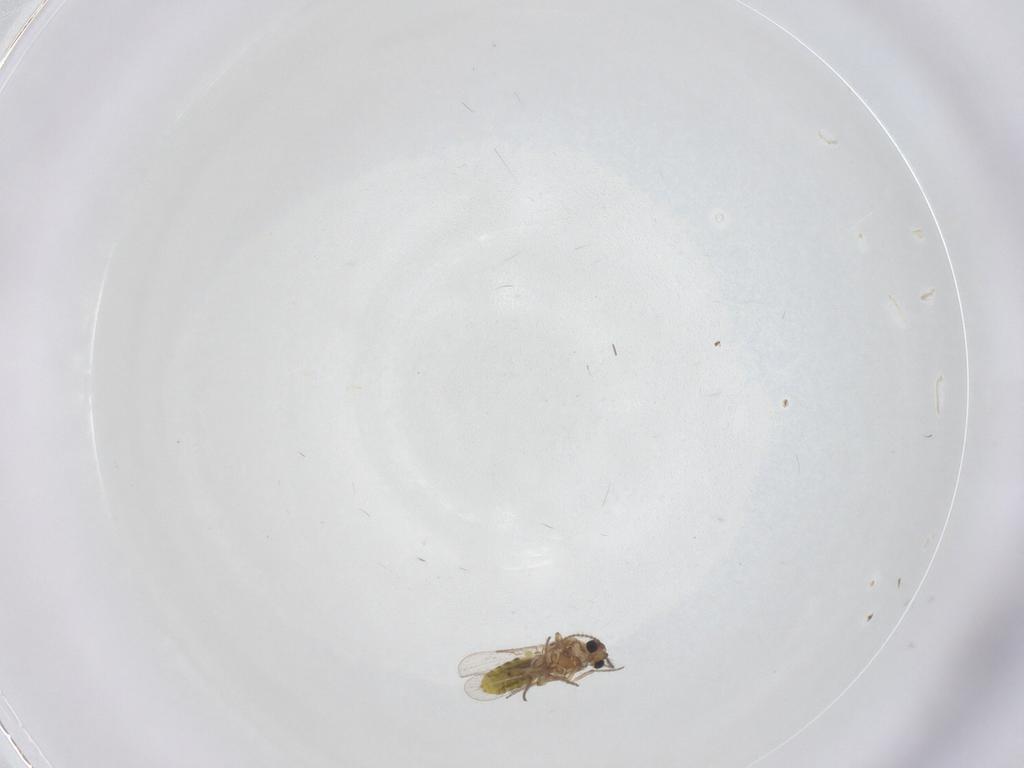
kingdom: Animalia
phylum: Arthropoda
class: Insecta
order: Diptera
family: Ceratopogonidae
